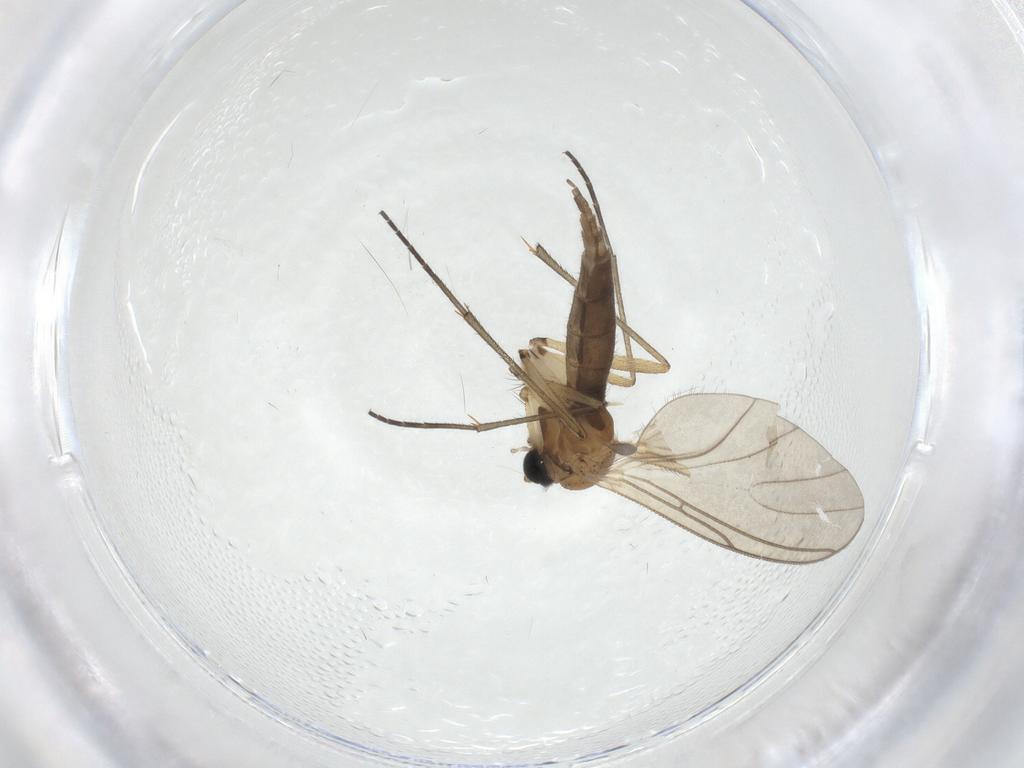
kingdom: Animalia
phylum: Arthropoda
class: Insecta
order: Diptera
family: Sciaridae
